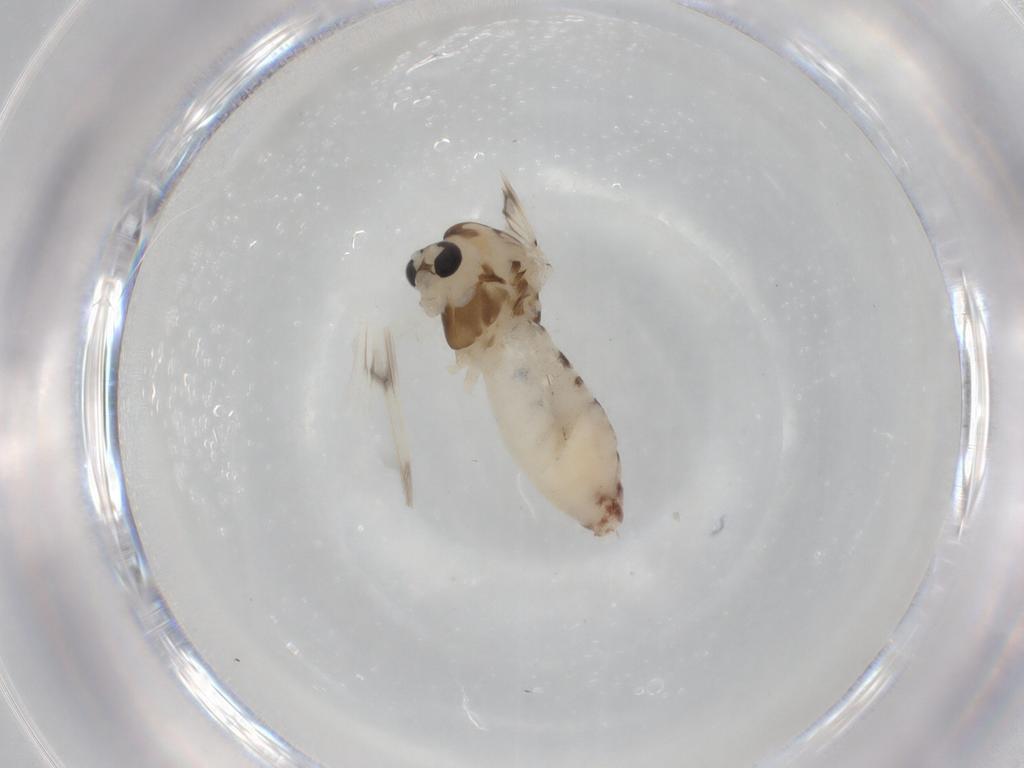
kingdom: Animalia
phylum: Arthropoda
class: Insecta
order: Diptera
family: Chironomidae
